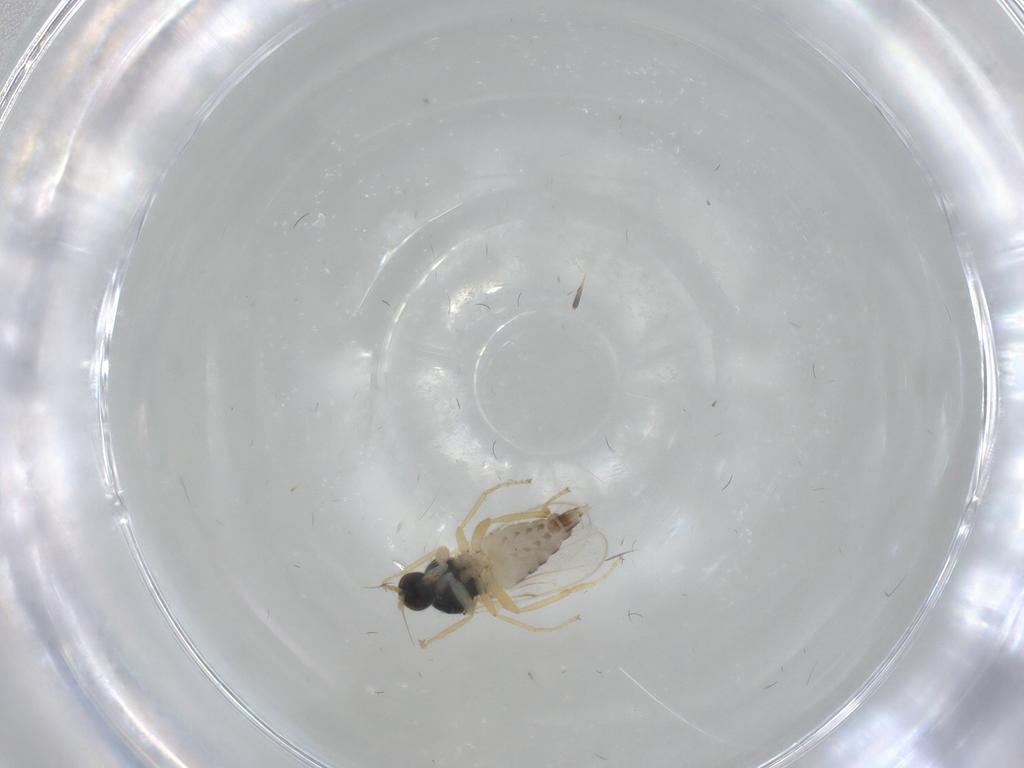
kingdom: Animalia
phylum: Arthropoda
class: Insecta
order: Diptera
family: Hybotidae
